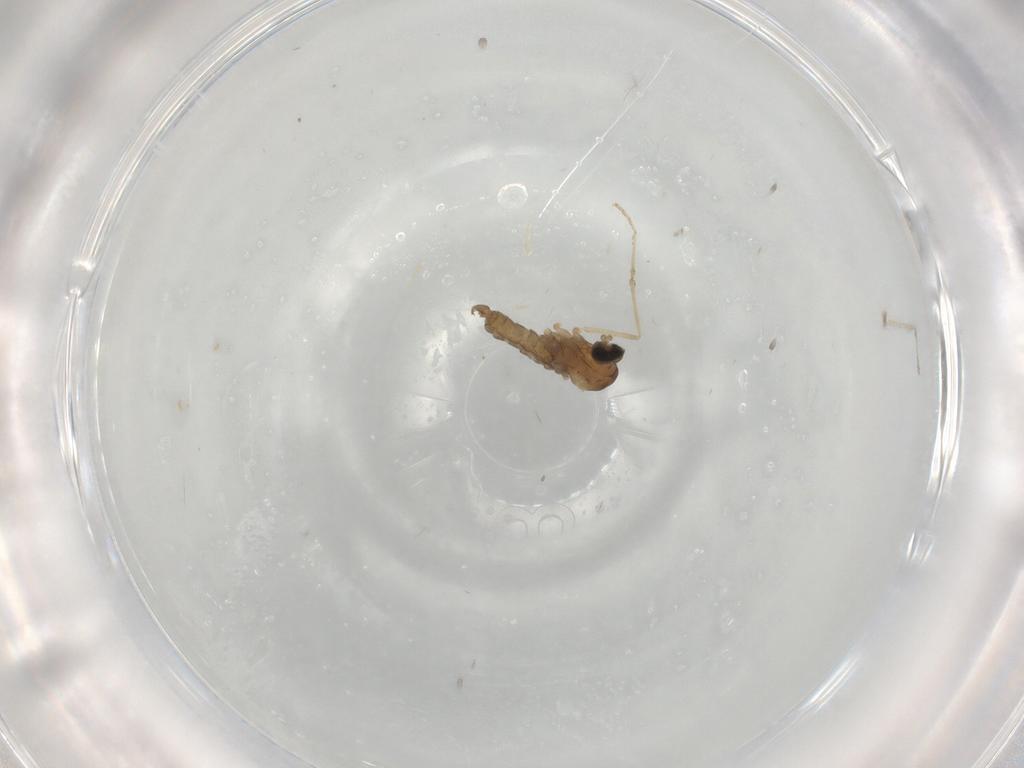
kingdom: Animalia
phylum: Arthropoda
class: Insecta
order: Diptera
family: Cecidomyiidae
